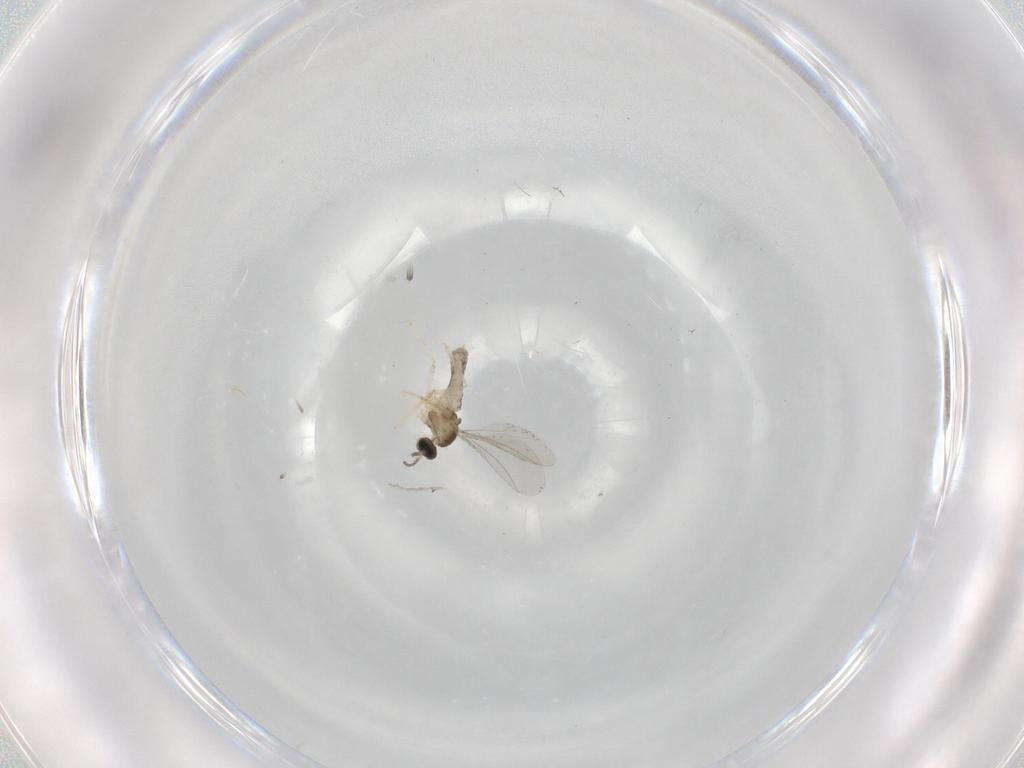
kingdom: Animalia
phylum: Arthropoda
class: Insecta
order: Diptera
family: Cecidomyiidae
